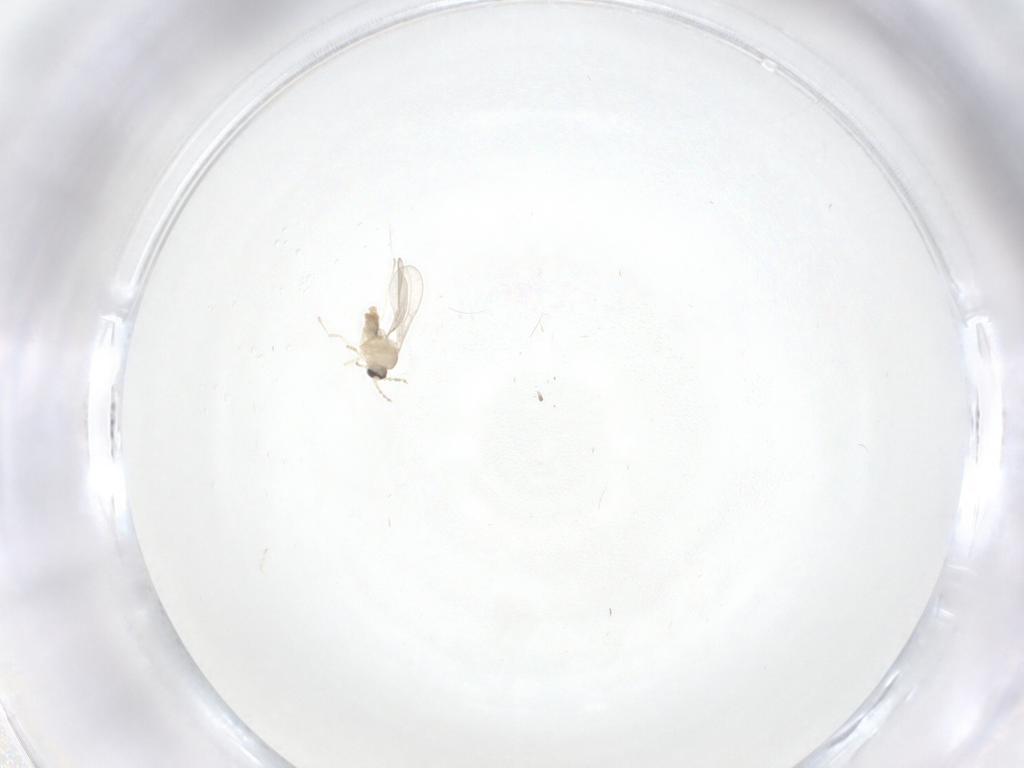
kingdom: Animalia
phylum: Arthropoda
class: Insecta
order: Diptera
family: Cecidomyiidae
